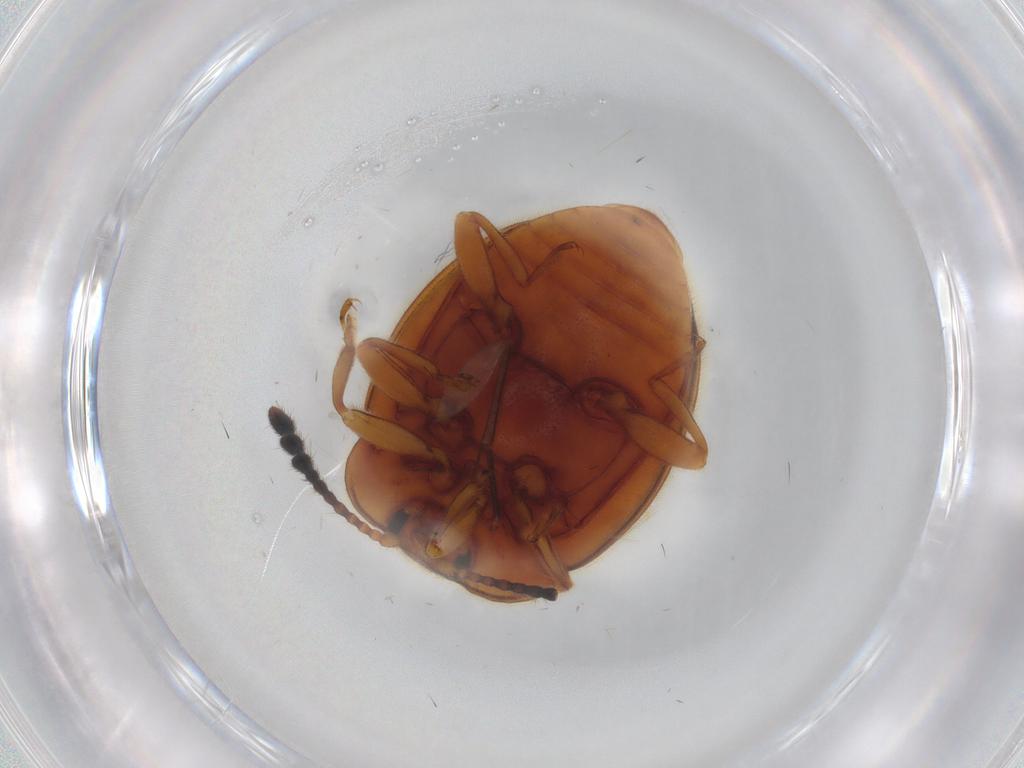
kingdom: Animalia
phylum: Arthropoda
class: Insecta
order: Coleoptera
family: Endomychidae
